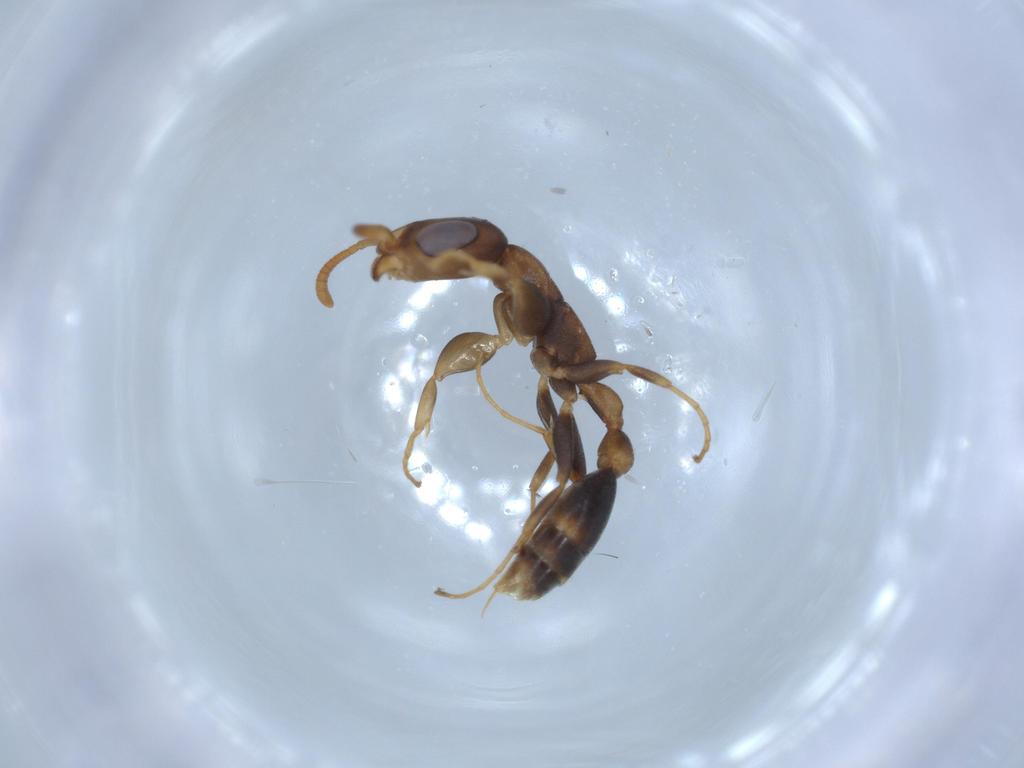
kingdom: Animalia
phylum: Arthropoda
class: Insecta
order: Hymenoptera
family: Formicidae
